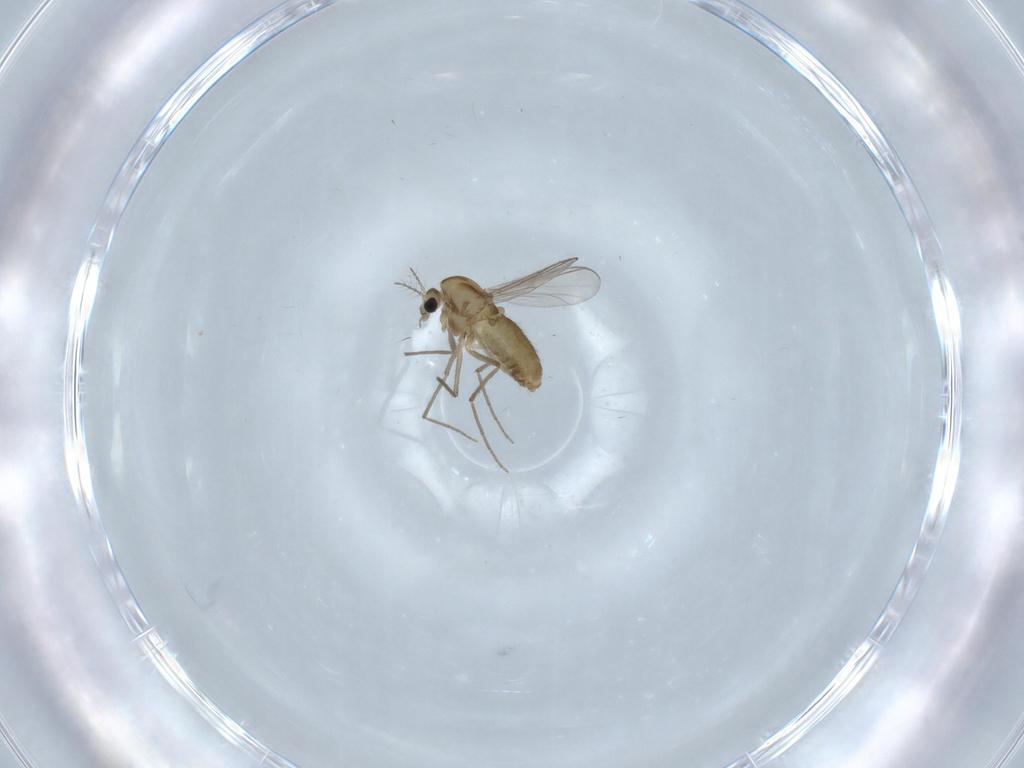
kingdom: Animalia
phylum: Arthropoda
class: Insecta
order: Diptera
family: Chironomidae
